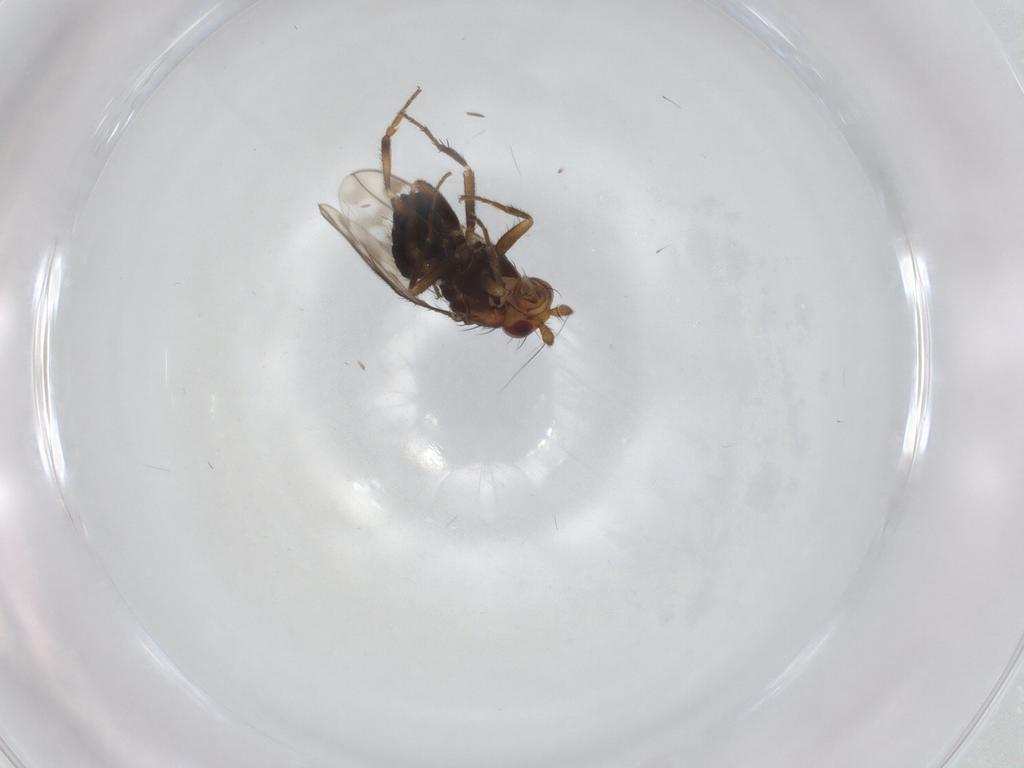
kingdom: Animalia
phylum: Arthropoda
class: Insecta
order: Diptera
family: Sphaeroceridae
